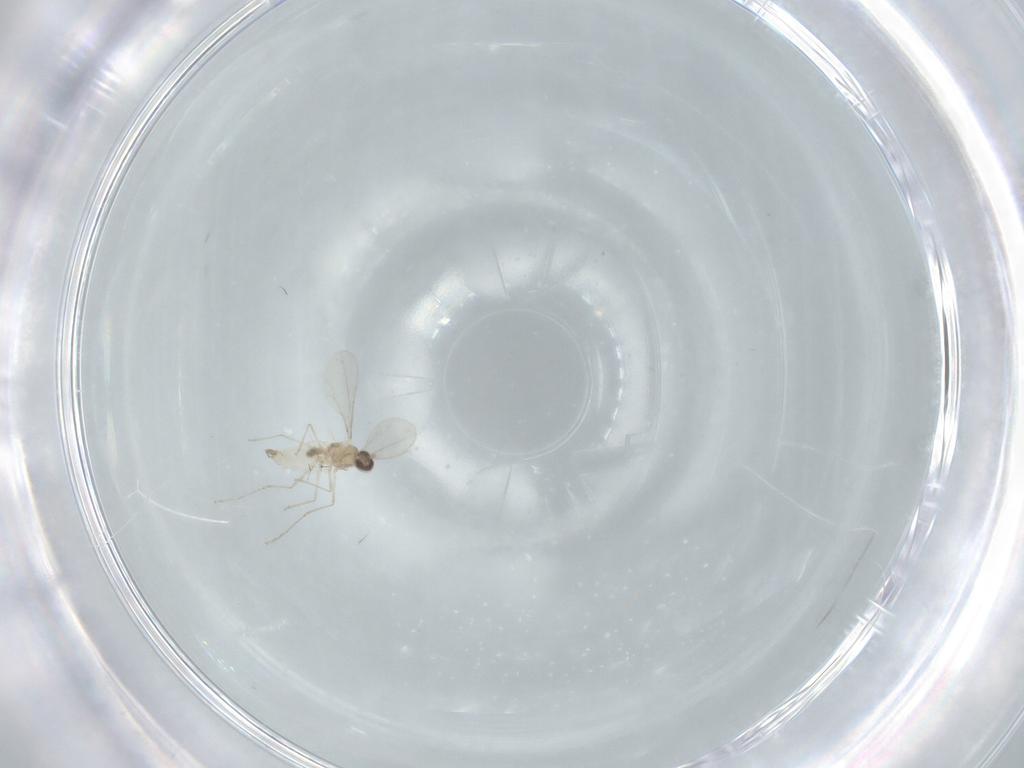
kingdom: Animalia
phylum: Arthropoda
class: Insecta
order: Diptera
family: Cecidomyiidae
